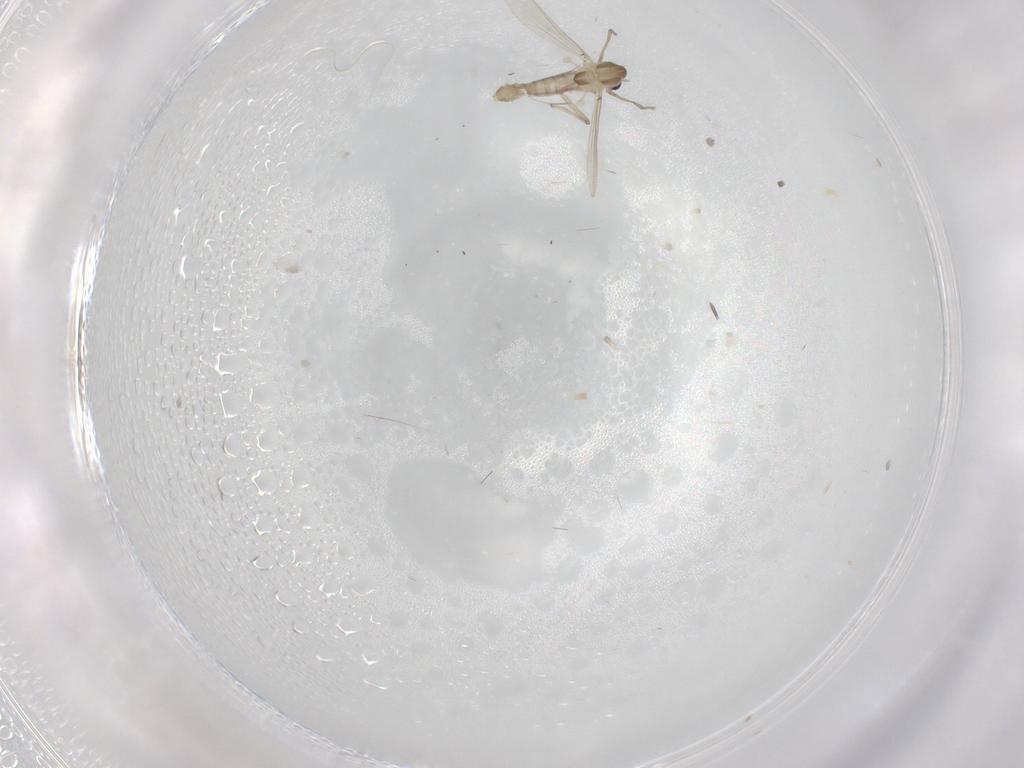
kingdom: Animalia
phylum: Arthropoda
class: Insecta
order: Diptera
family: Chironomidae
